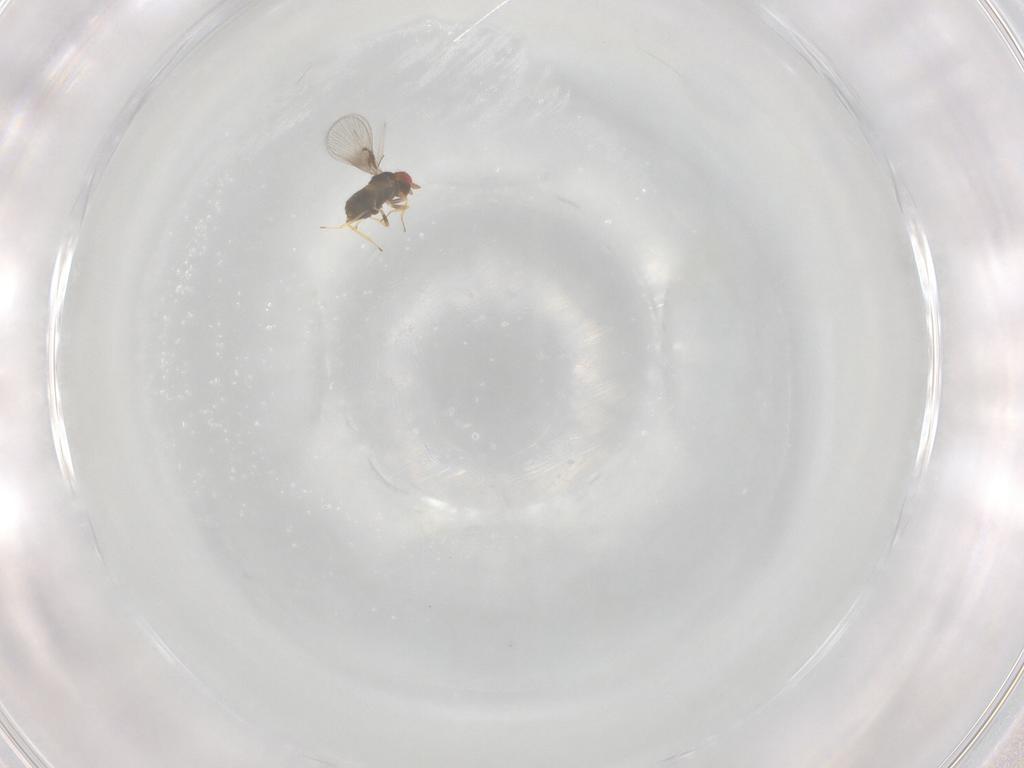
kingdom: Animalia
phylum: Arthropoda
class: Insecta
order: Hymenoptera
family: Trichogrammatidae
